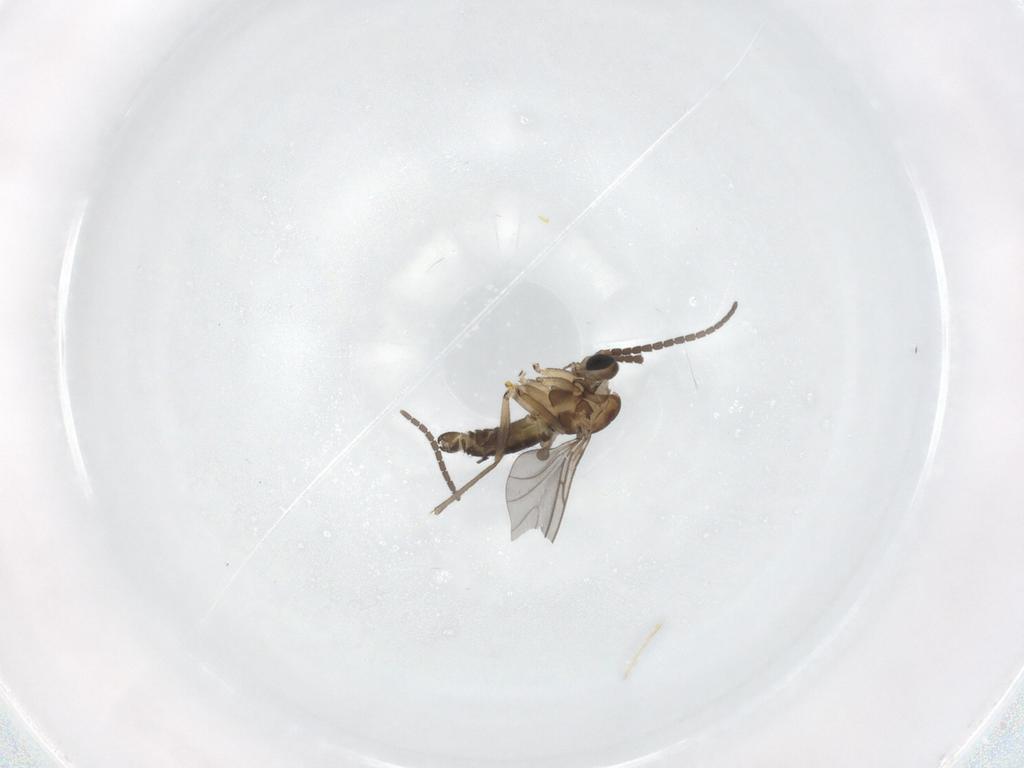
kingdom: Animalia
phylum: Arthropoda
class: Insecta
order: Diptera
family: Sciaridae
